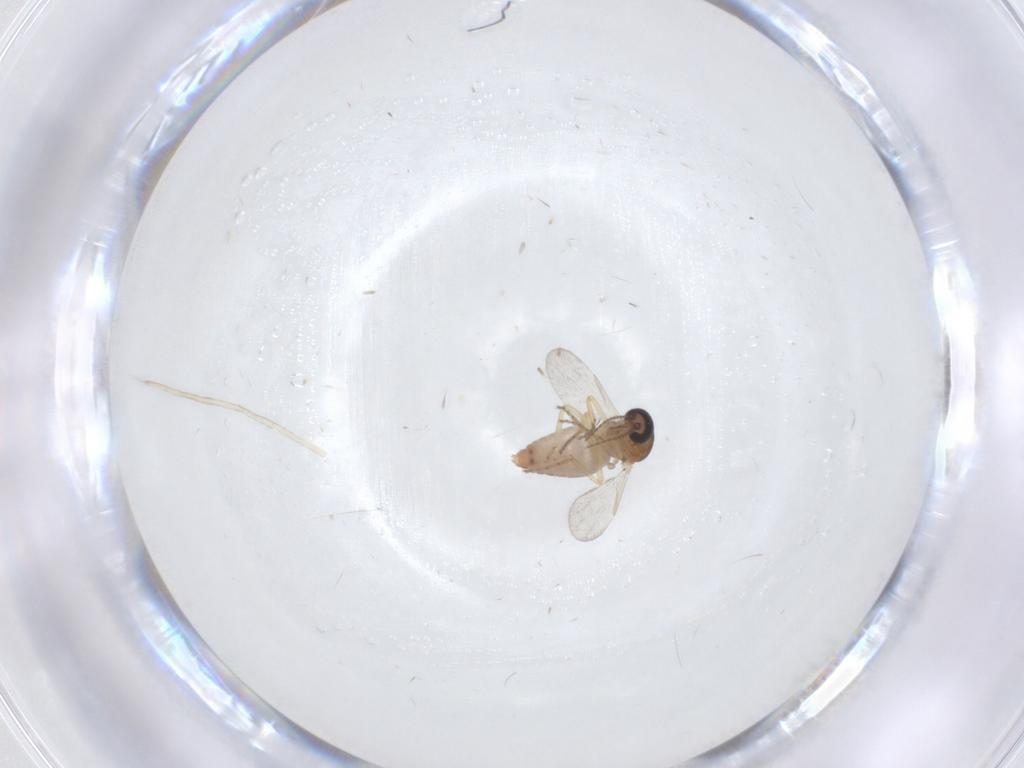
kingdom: Animalia
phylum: Arthropoda
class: Insecta
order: Diptera
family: Ceratopogonidae
